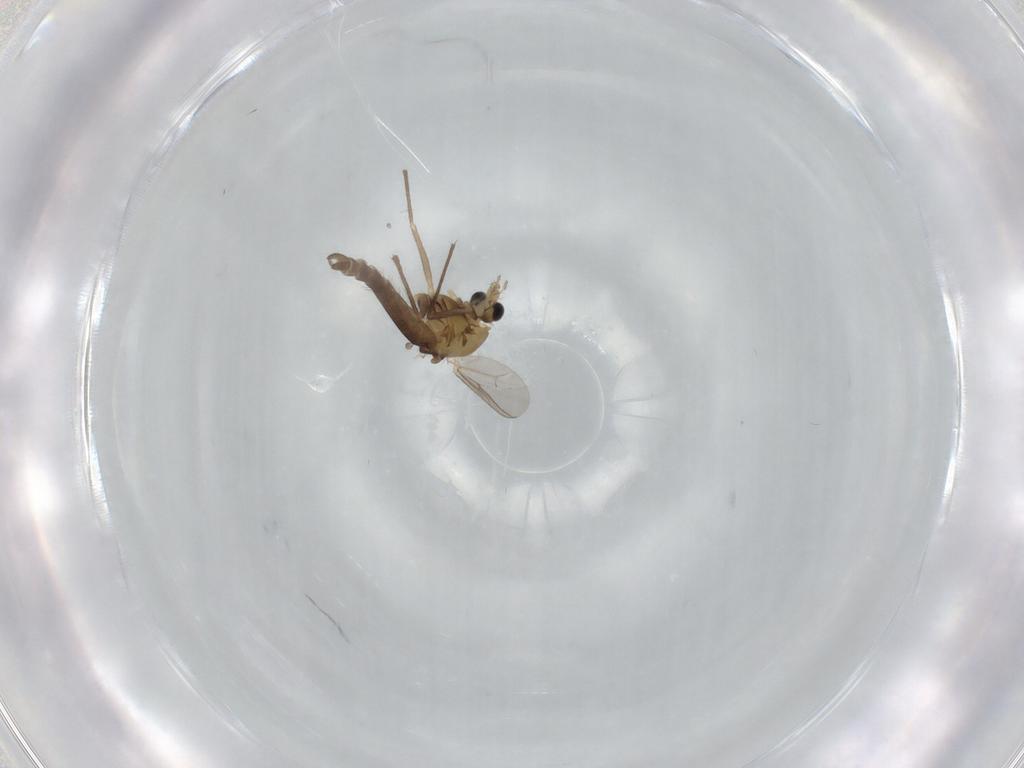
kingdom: Animalia
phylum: Arthropoda
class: Insecta
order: Diptera
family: Chironomidae
